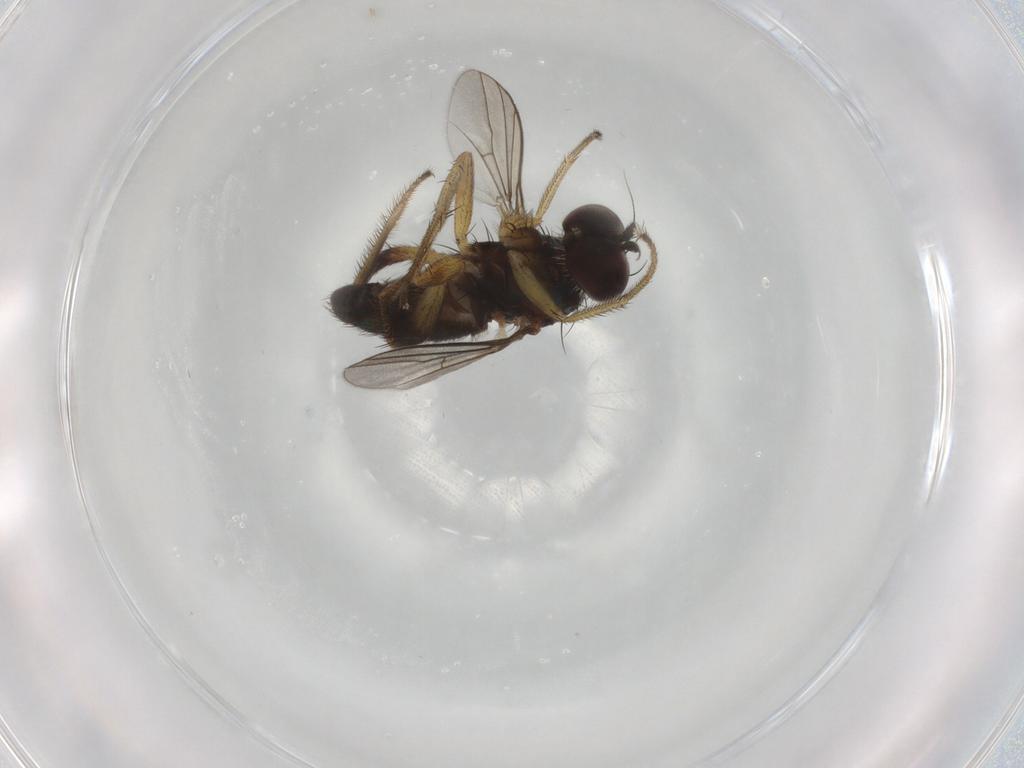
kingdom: Animalia
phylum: Arthropoda
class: Insecta
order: Diptera
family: Dolichopodidae
